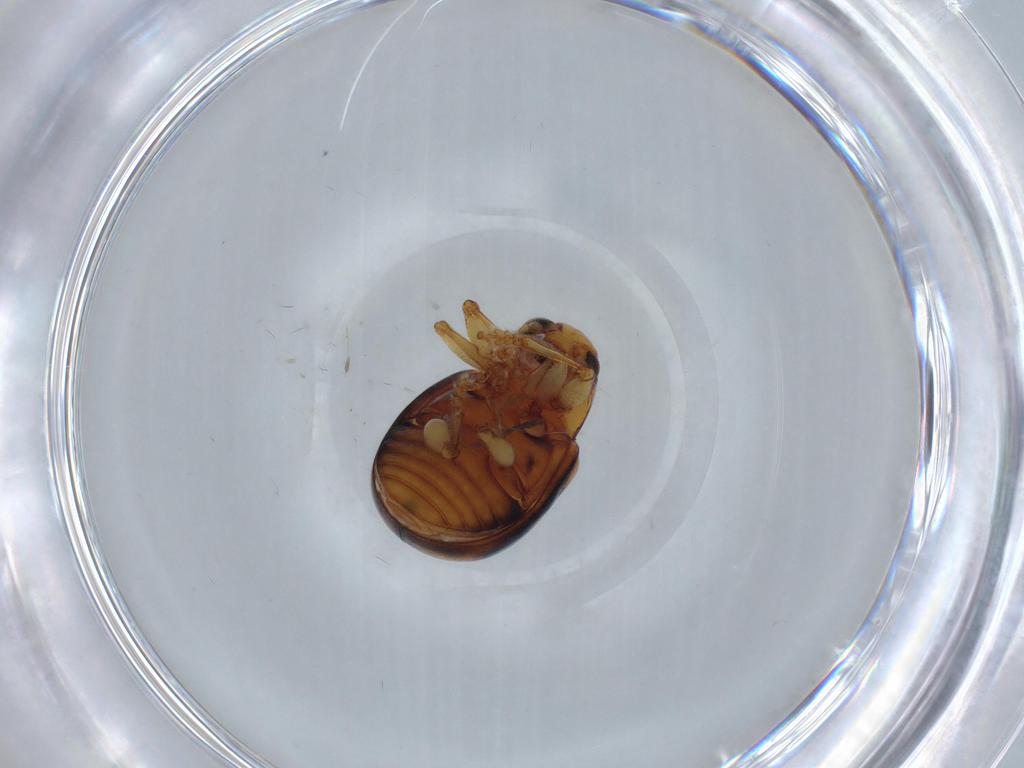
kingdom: Animalia
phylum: Arthropoda
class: Insecta
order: Coleoptera
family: Chrysomelidae
